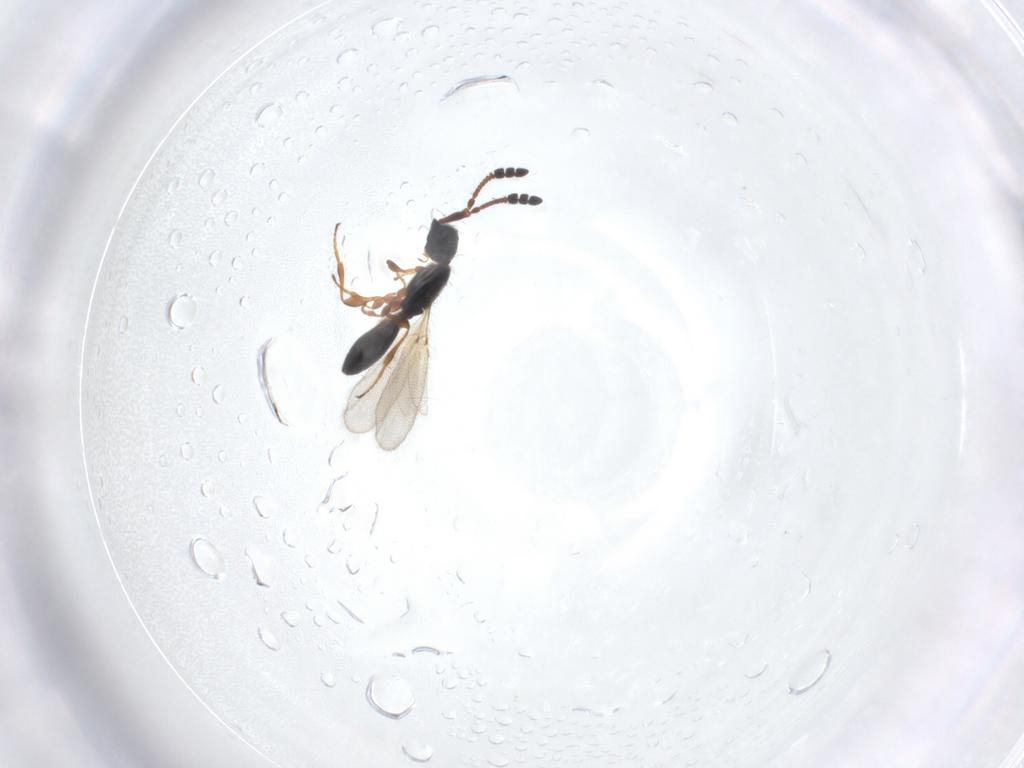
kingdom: Animalia
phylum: Arthropoda
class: Insecta
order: Hymenoptera
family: Diapriidae
